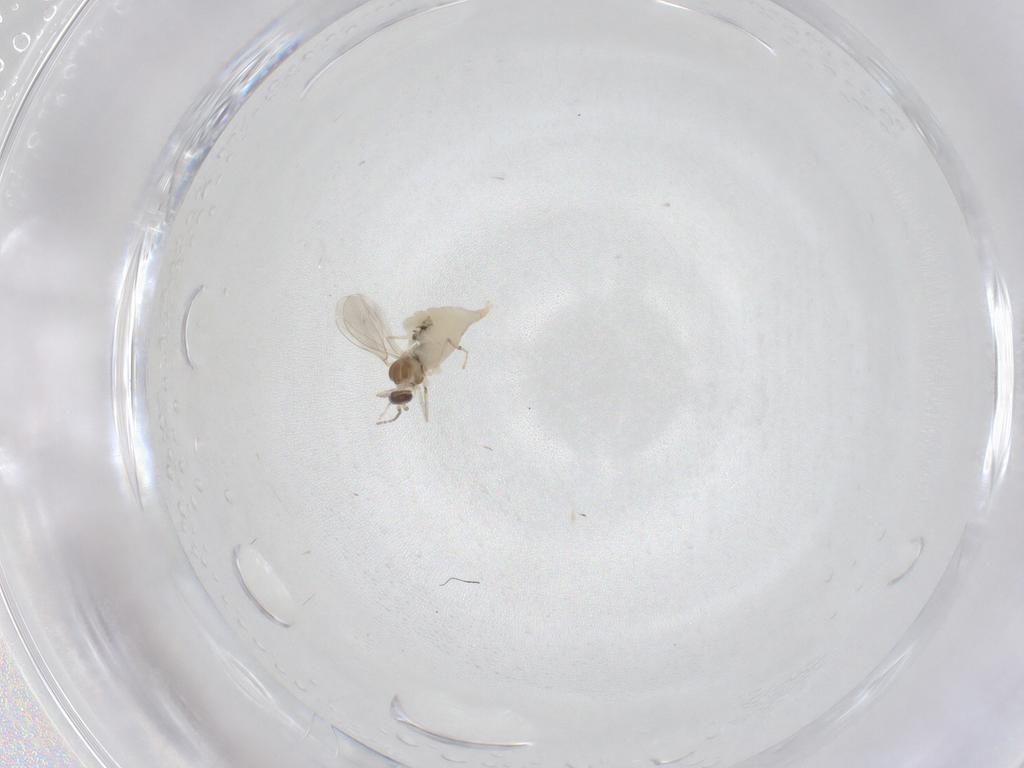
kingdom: Animalia
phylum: Arthropoda
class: Insecta
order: Diptera
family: Cecidomyiidae
